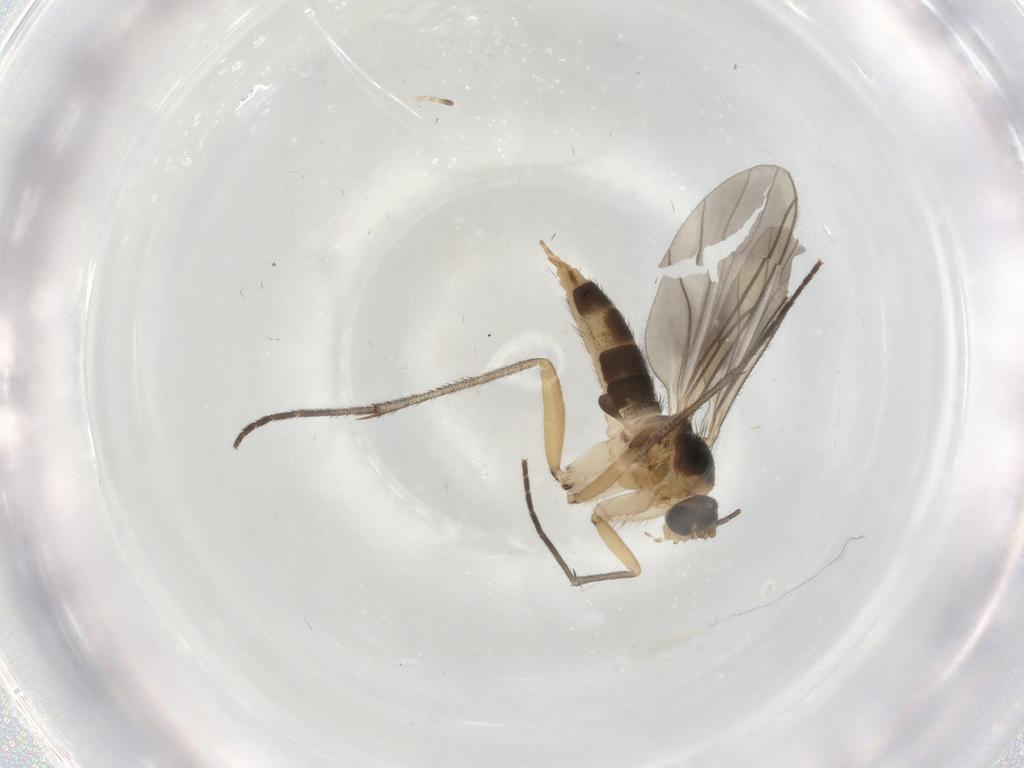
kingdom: Animalia
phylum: Arthropoda
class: Insecta
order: Diptera
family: Sciaridae
